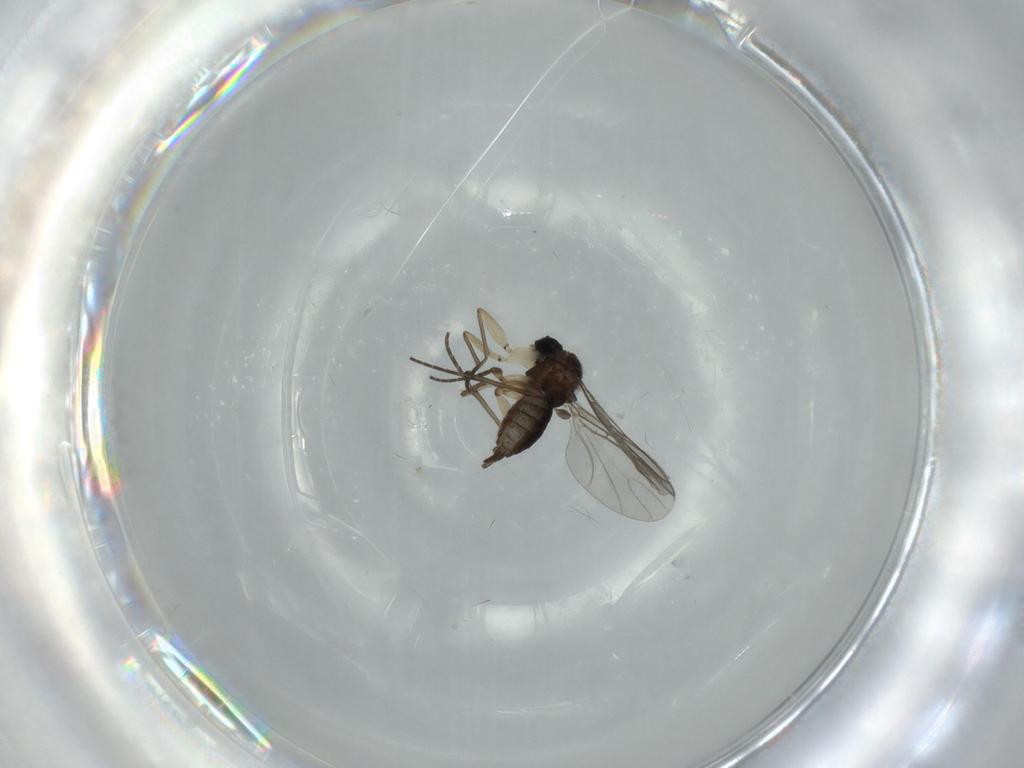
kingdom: Animalia
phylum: Arthropoda
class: Insecta
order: Diptera
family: Sciaridae
